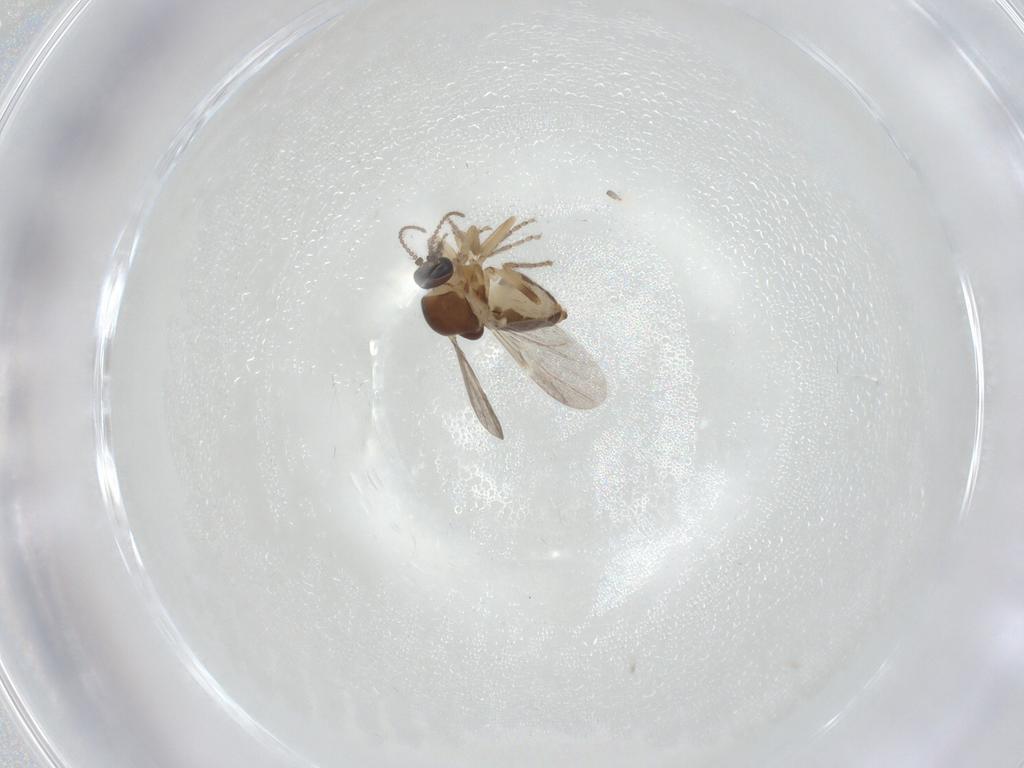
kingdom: Animalia
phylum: Arthropoda
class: Insecta
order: Diptera
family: Ceratopogonidae
